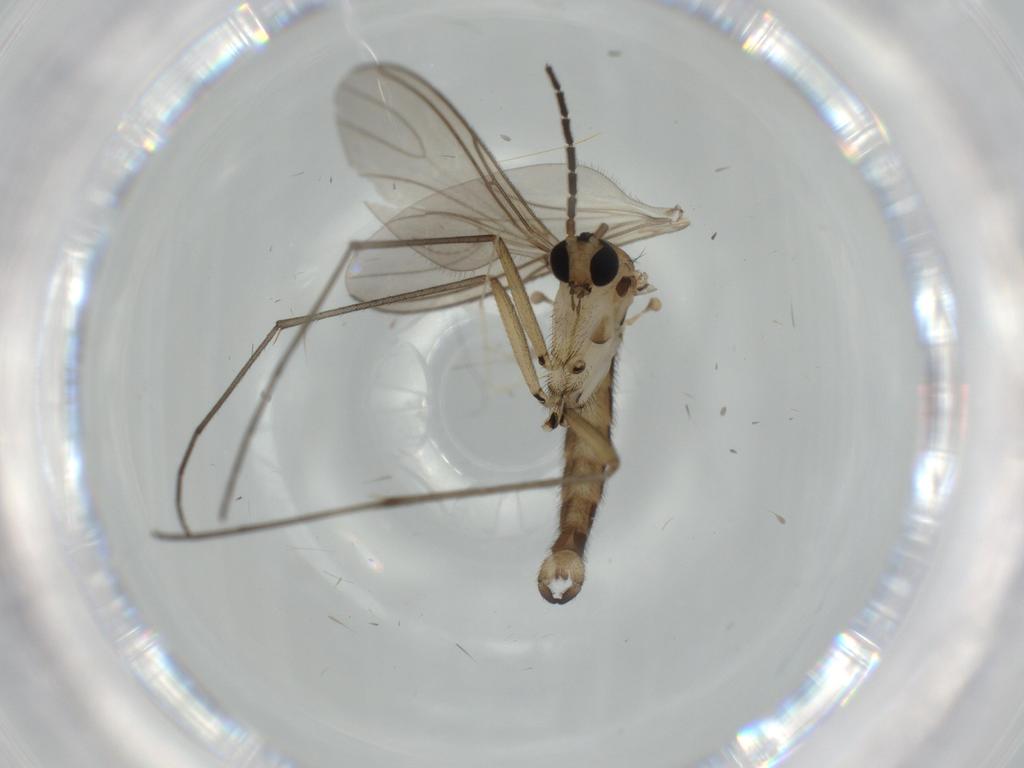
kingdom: Animalia
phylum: Arthropoda
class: Insecta
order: Diptera
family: Sciaridae
